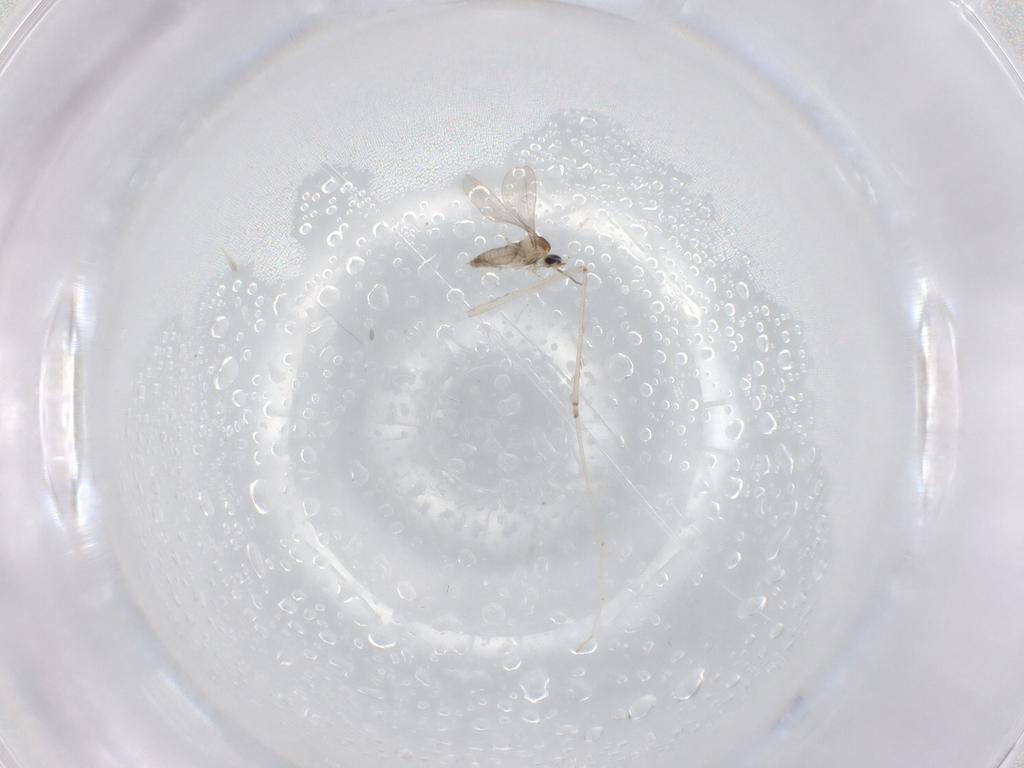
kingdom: Animalia
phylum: Arthropoda
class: Insecta
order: Diptera
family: Cecidomyiidae
